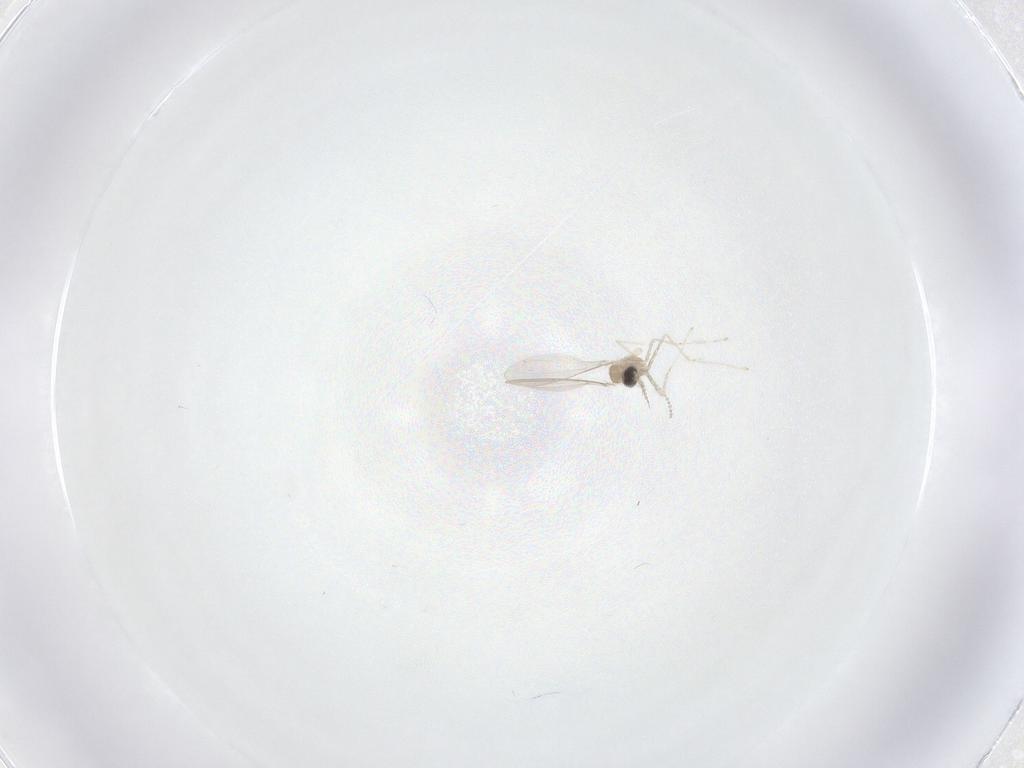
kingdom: Animalia
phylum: Arthropoda
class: Insecta
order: Diptera
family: Cecidomyiidae
